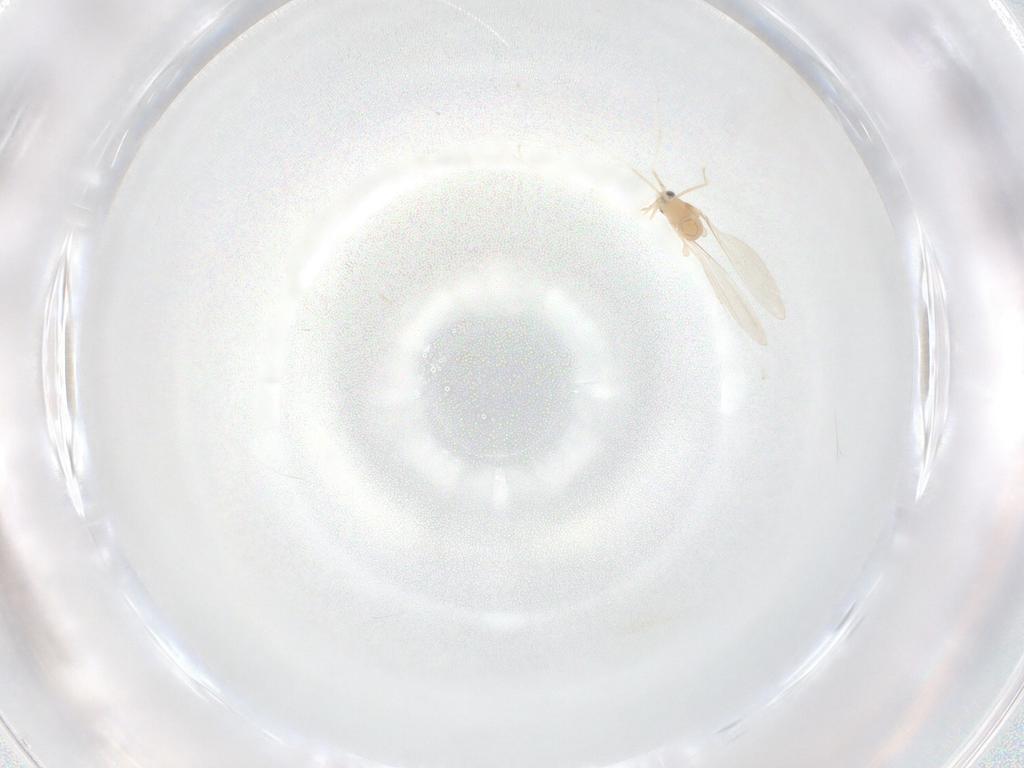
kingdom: Animalia
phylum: Arthropoda
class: Insecta
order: Diptera
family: Cecidomyiidae
